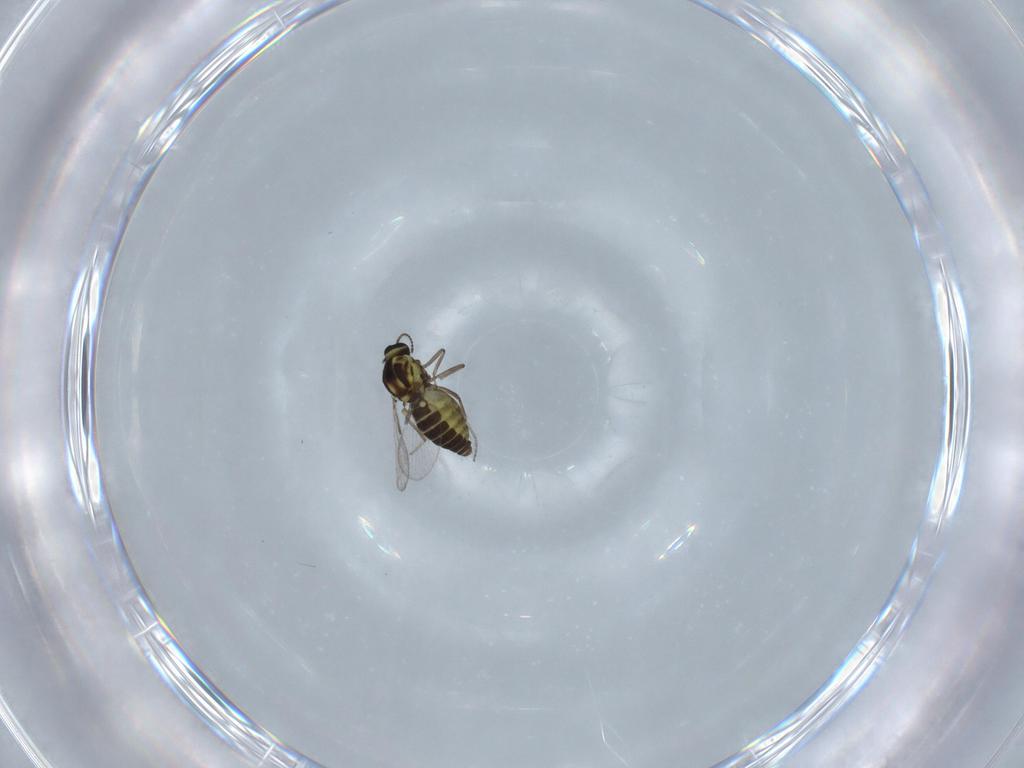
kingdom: Animalia
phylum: Arthropoda
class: Insecta
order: Diptera
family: Ceratopogonidae
